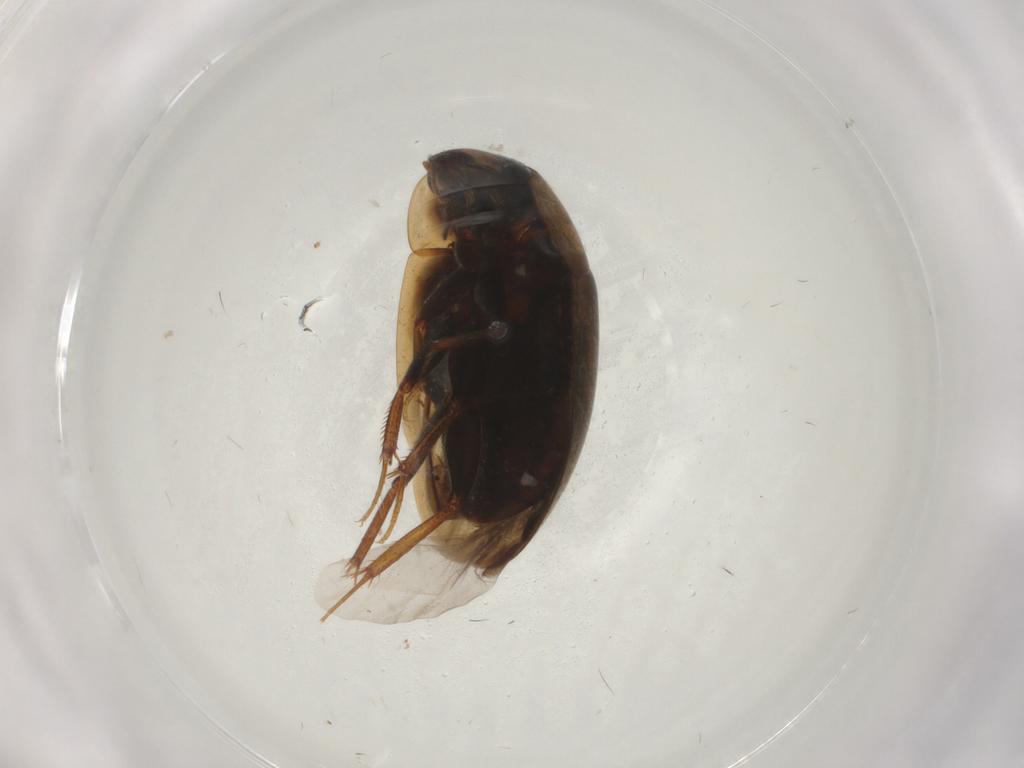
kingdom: Animalia
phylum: Arthropoda
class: Insecta
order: Coleoptera
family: Hydrophilidae
